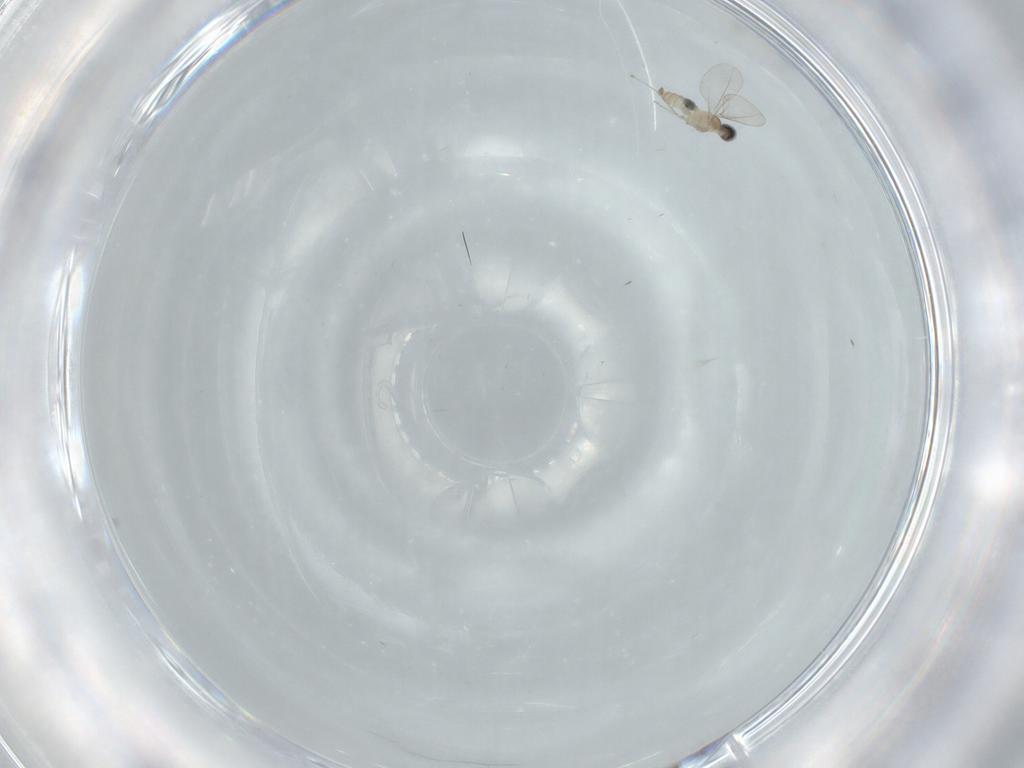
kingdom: Animalia
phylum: Arthropoda
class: Insecta
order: Diptera
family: Cecidomyiidae
